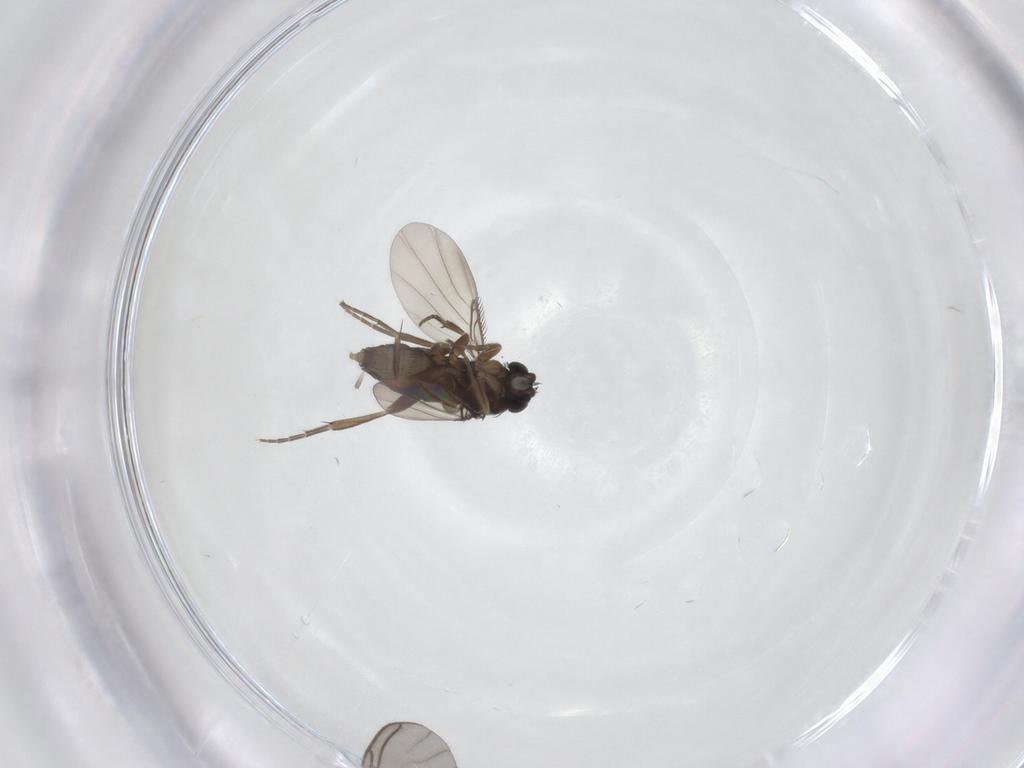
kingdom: Animalia
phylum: Arthropoda
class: Insecta
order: Diptera
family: Phoridae
